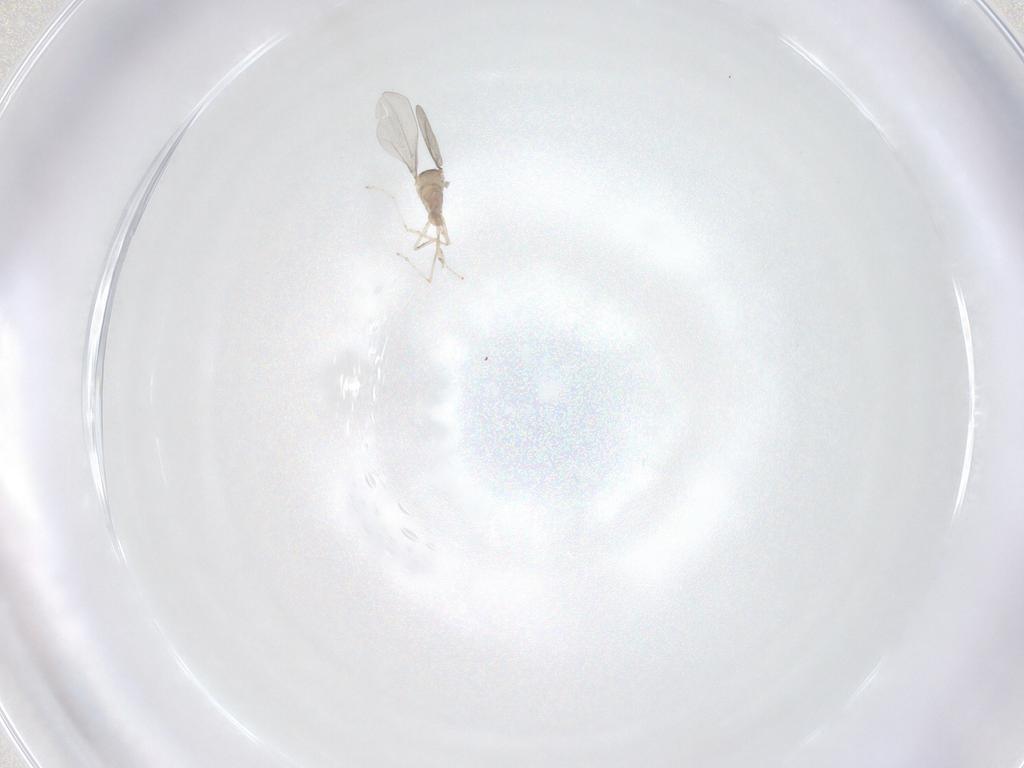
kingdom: Animalia
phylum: Arthropoda
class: Insecta
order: Diptera
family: Cecidomyiidae
